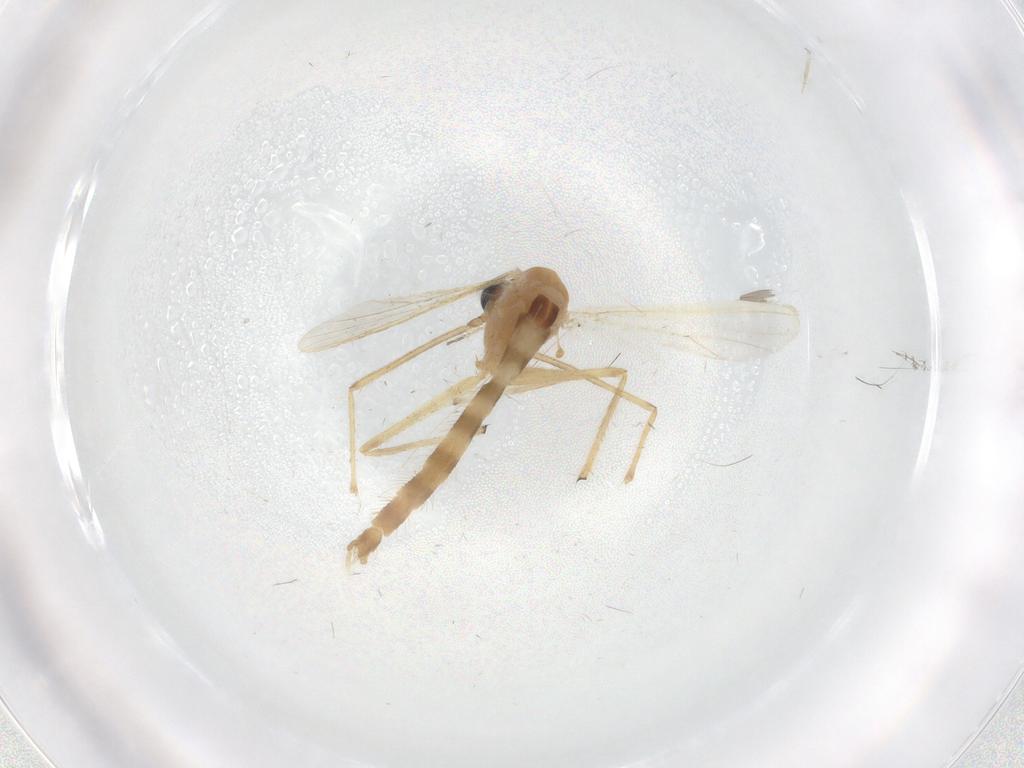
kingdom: Animalia
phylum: Arthropoda
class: Insecta
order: Diptera
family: Chironomidae
